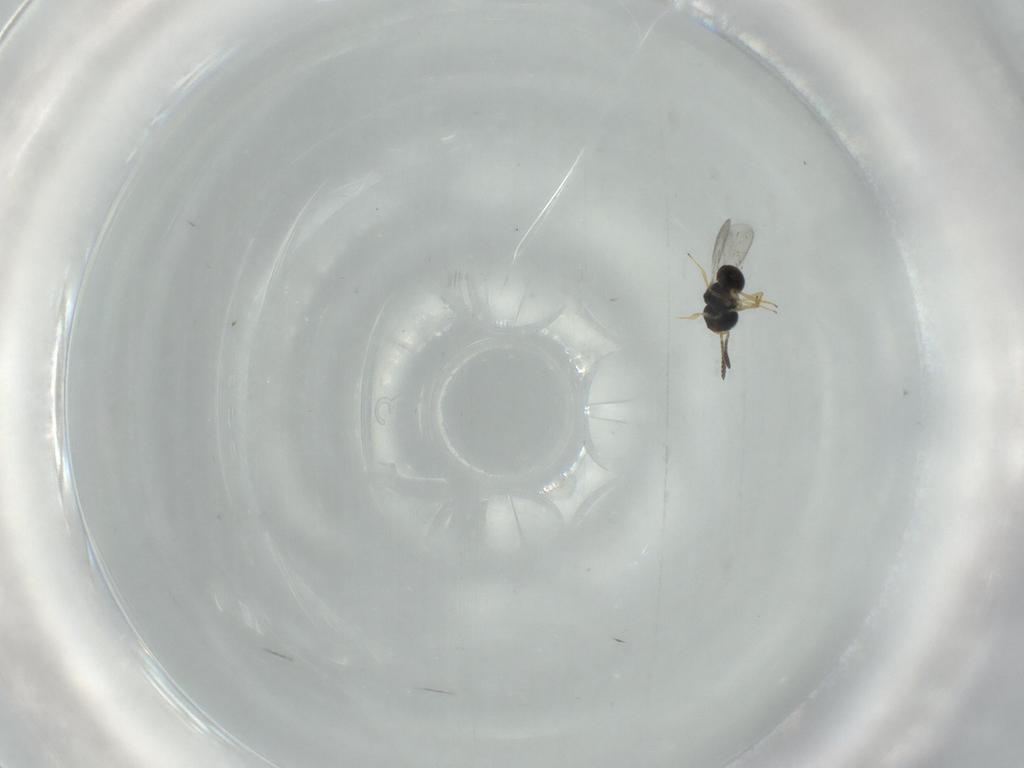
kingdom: Animalia
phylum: Arthropoda
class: Insecta
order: Hymenoptera
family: Scelionidae
